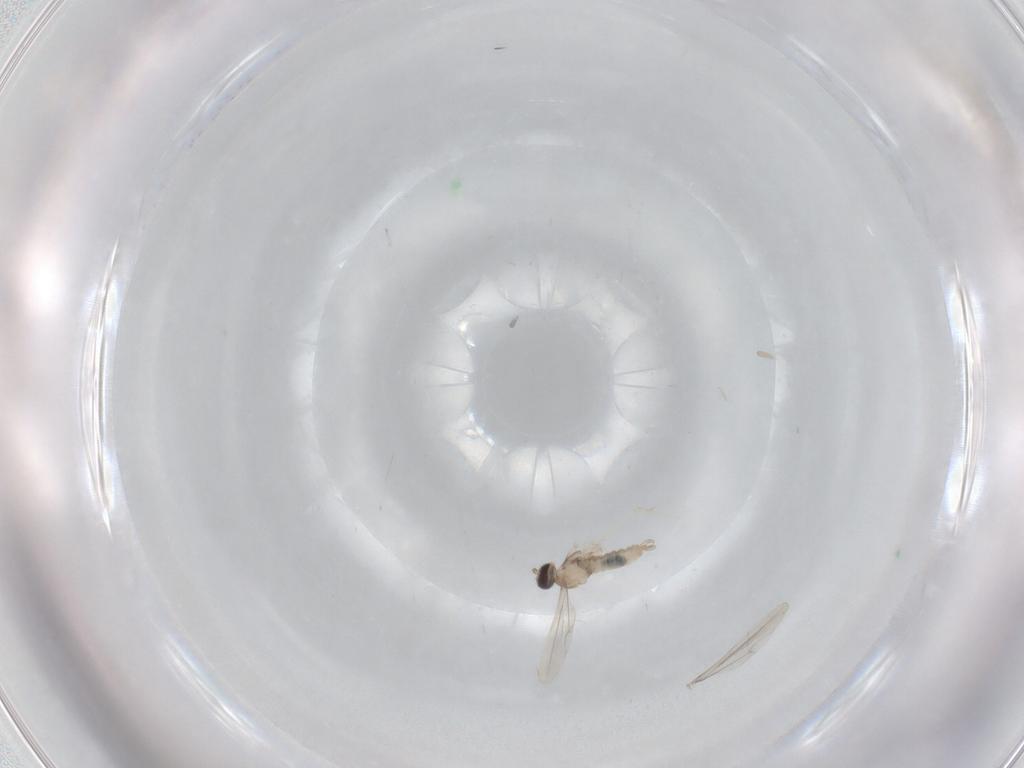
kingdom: Animalia
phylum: Arthropoda
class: Insecta
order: Diptera
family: Cecidomyiidae
